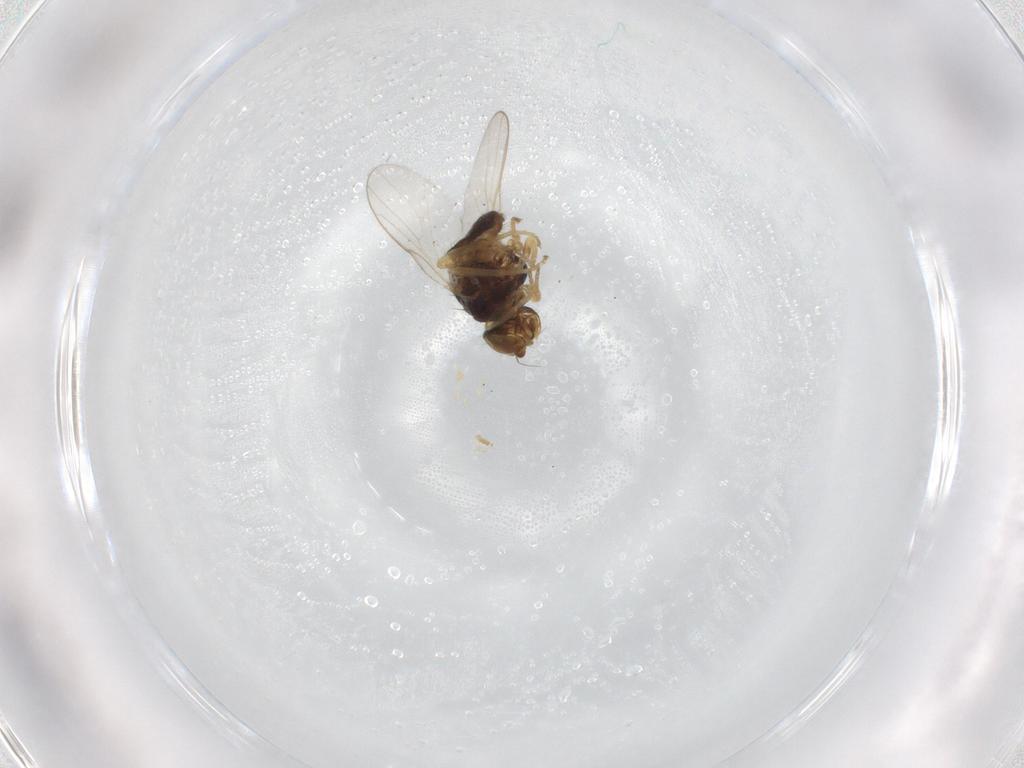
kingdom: Animalia
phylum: Arthropoda
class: Insecta
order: Diptera
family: Chloropidae
